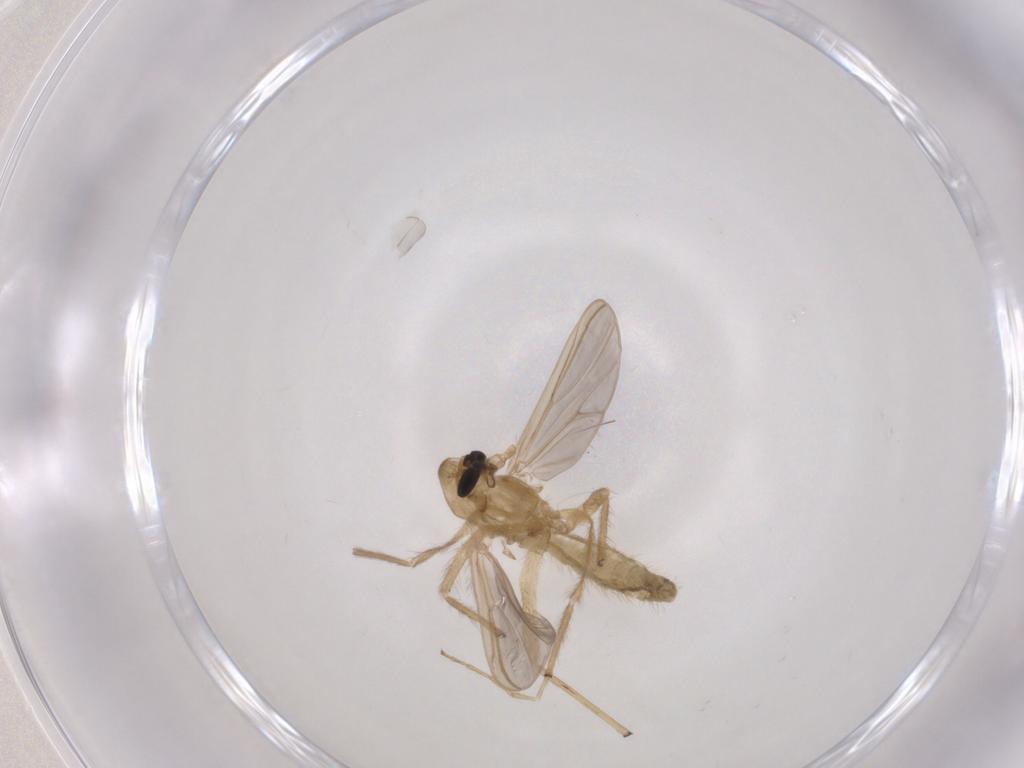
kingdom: Animalia
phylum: Arthropoda
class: Insecta
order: Diptera
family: Chironomidae
